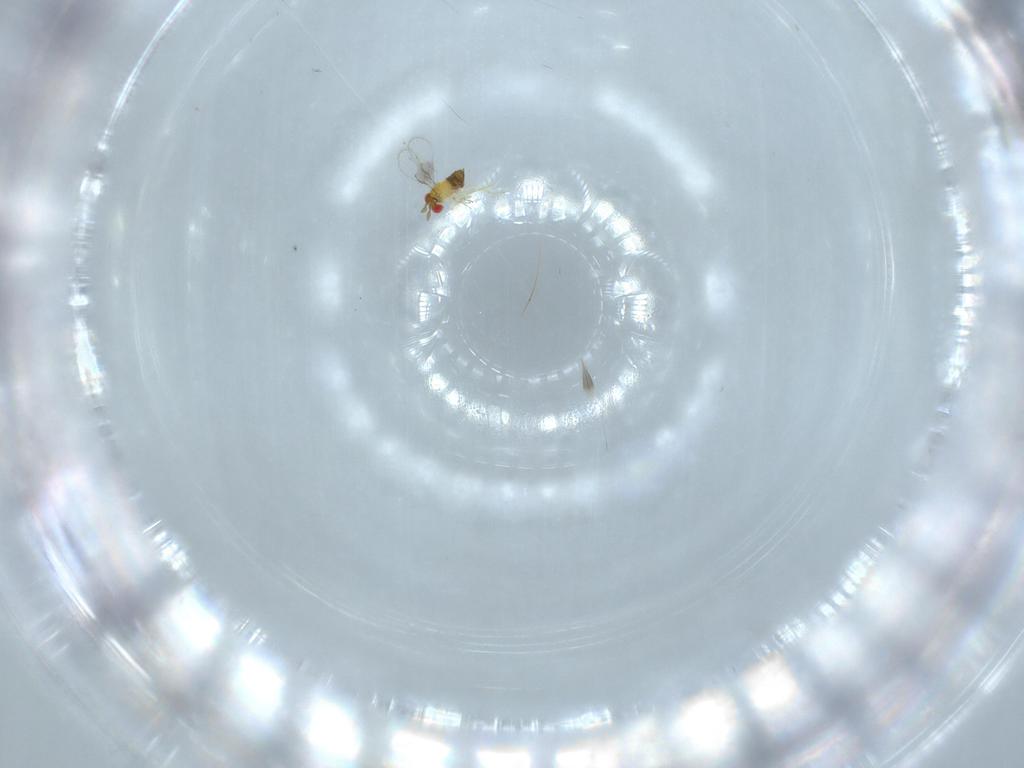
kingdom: Animalia
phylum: Arthropoda
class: Insecta
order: Hymenoptera
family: Trichogrammatidae
